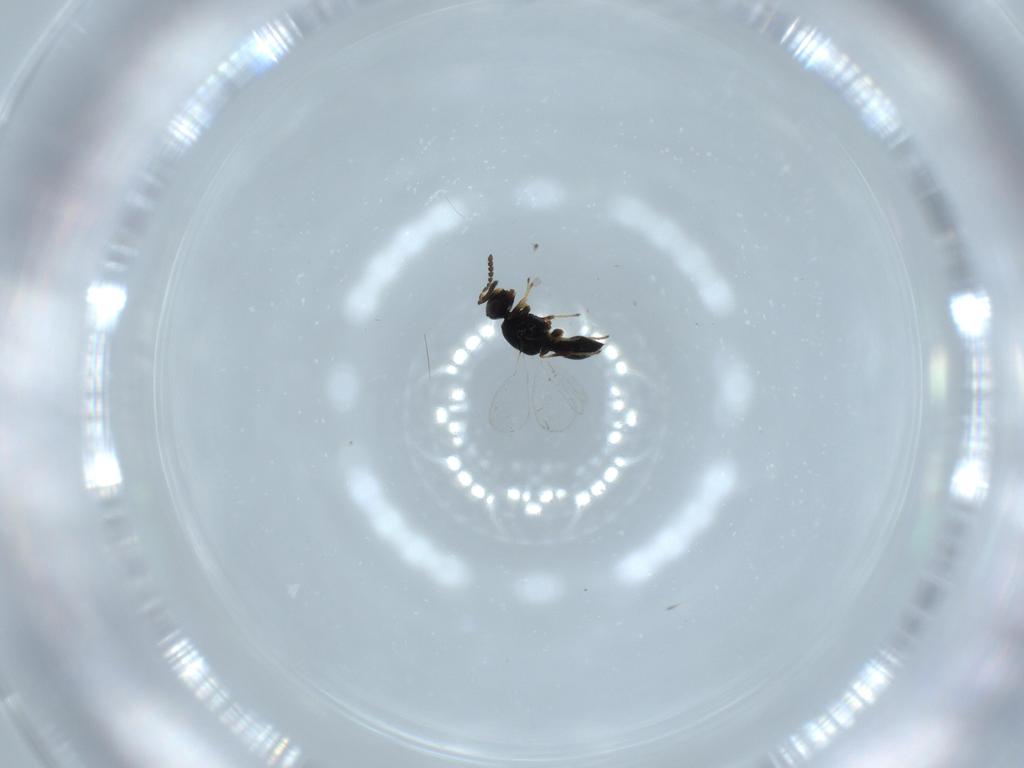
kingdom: Animalia
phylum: Arthropoda
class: Insecta
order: Hymenoptera
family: Platygastridae
